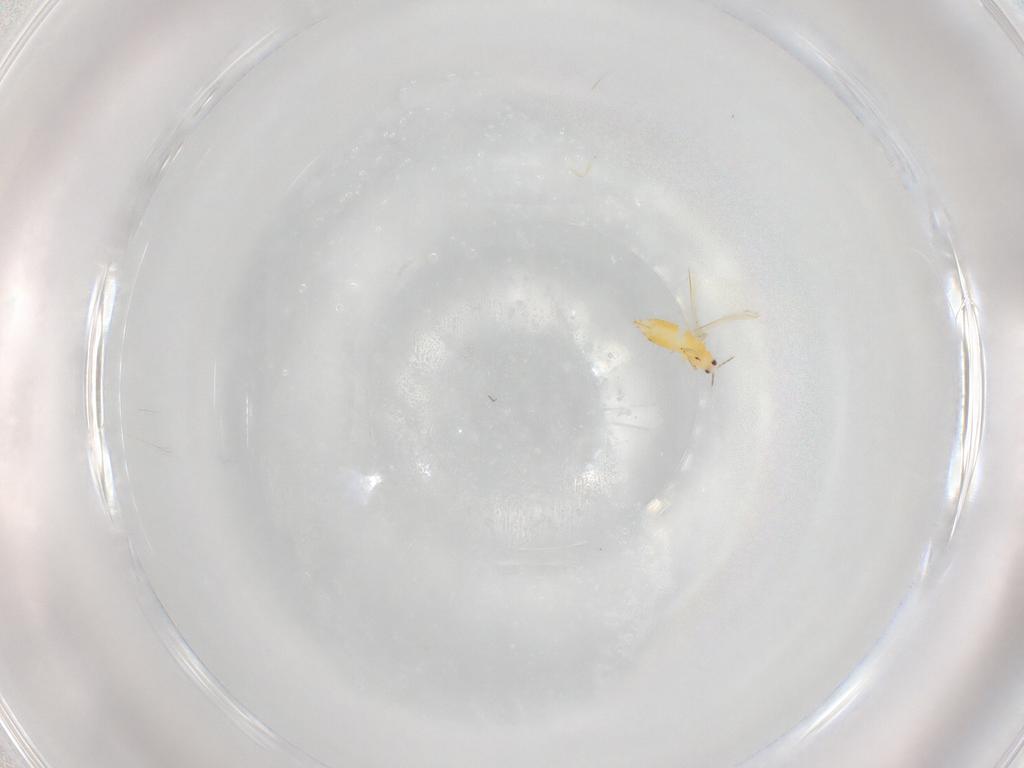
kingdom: Animalia
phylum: Arthropoda
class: Insecta
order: Thysanoptera
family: Thripidae
